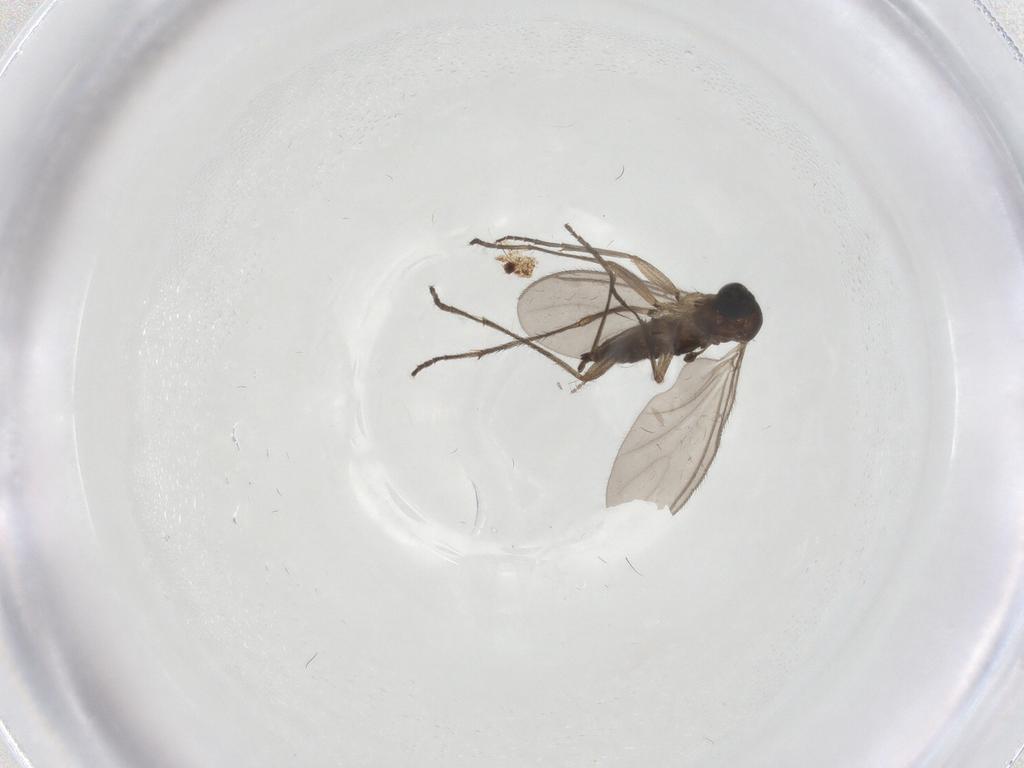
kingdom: Animalia
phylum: Arthropoda
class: Insecta
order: Diptera
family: Sciaridae
